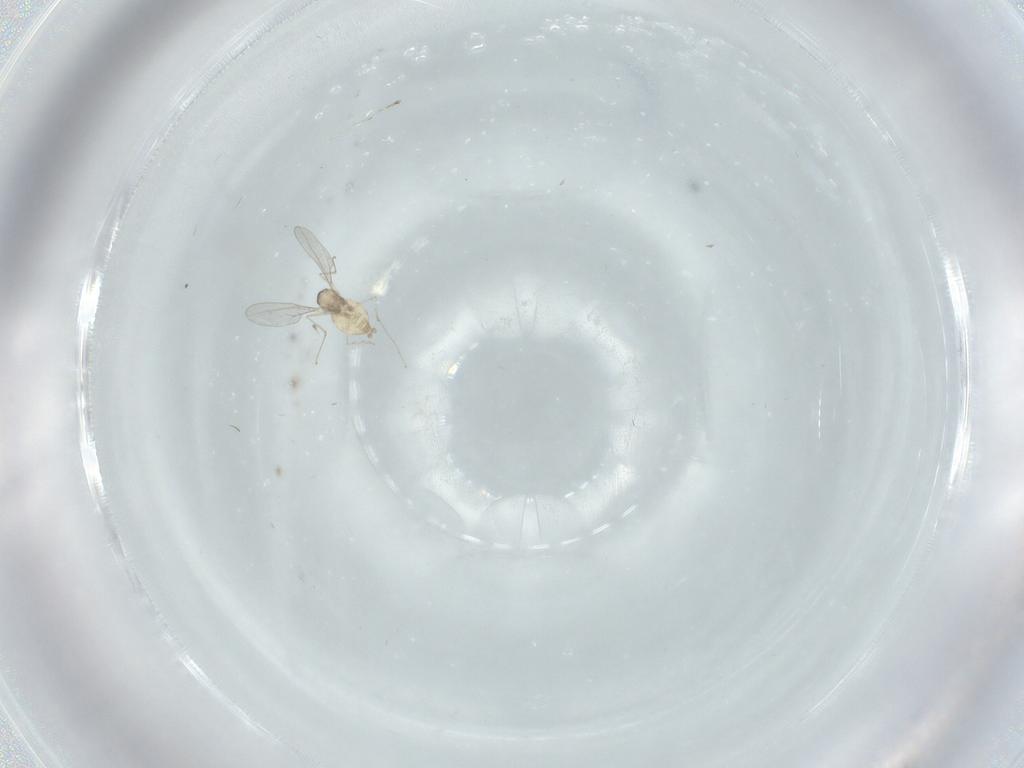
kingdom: Animalia
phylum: Arthropoda
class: Insecta
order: Diptera
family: Cecidomyiidae
